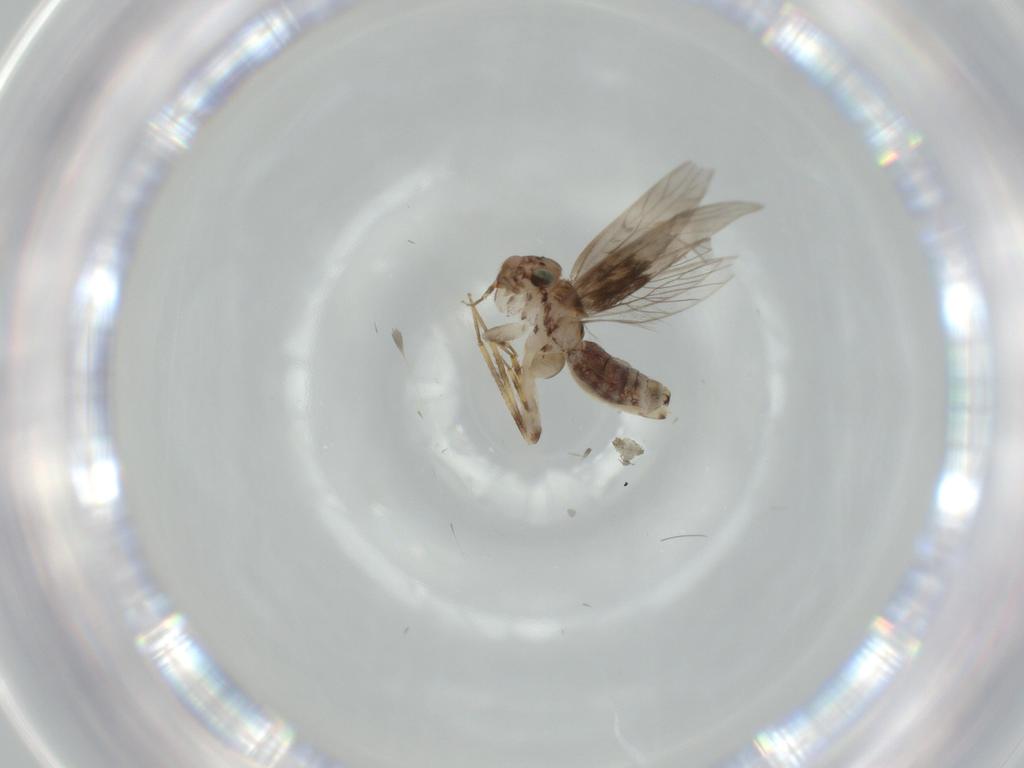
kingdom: Animalia
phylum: Arthropoda
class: Insecta
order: Psocodea
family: Lepidopsocidae
